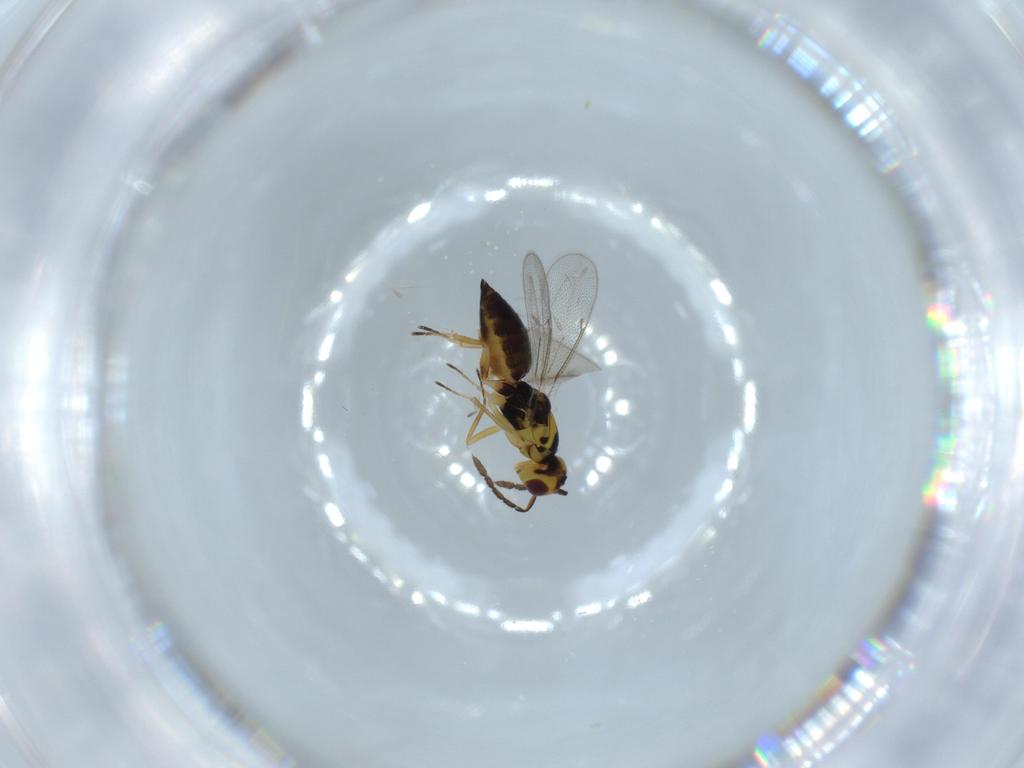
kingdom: Animalia
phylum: Arthropoda
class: Insecta
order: Hymenoptera
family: Eulophidae
